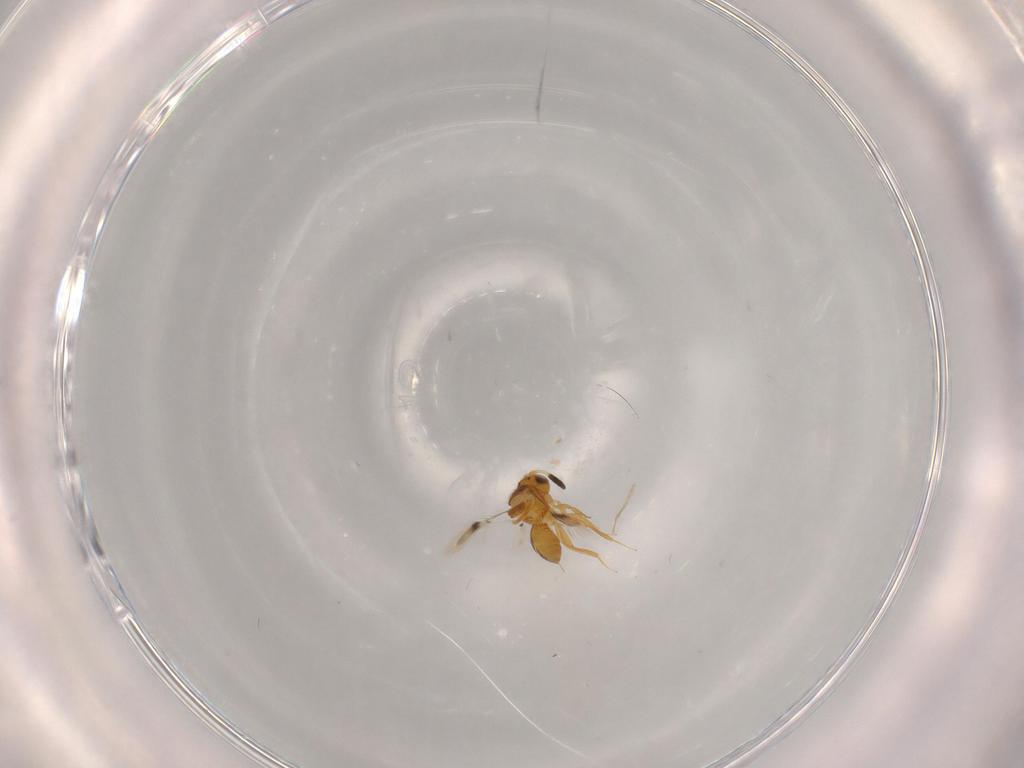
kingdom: Animalia
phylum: Arthropoda
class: Insecta
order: Hymenoptera
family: Scelionidae
